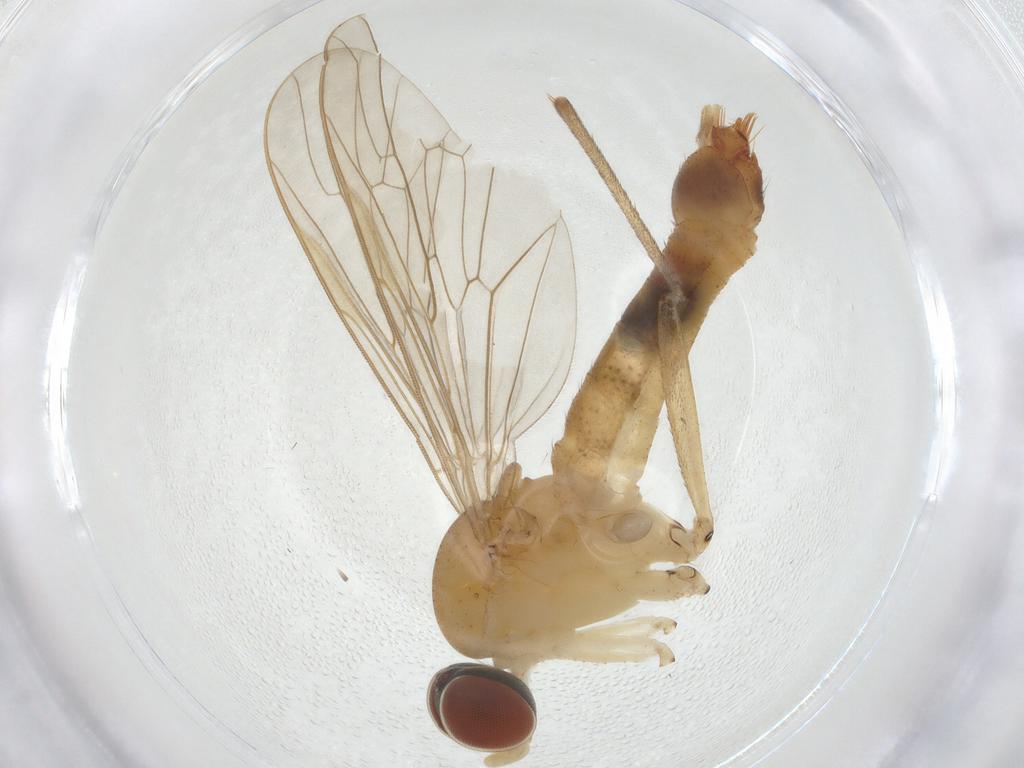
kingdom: Animalia
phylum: Arthropoda
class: Insecta
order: Diptera
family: Apsilocephalidae
